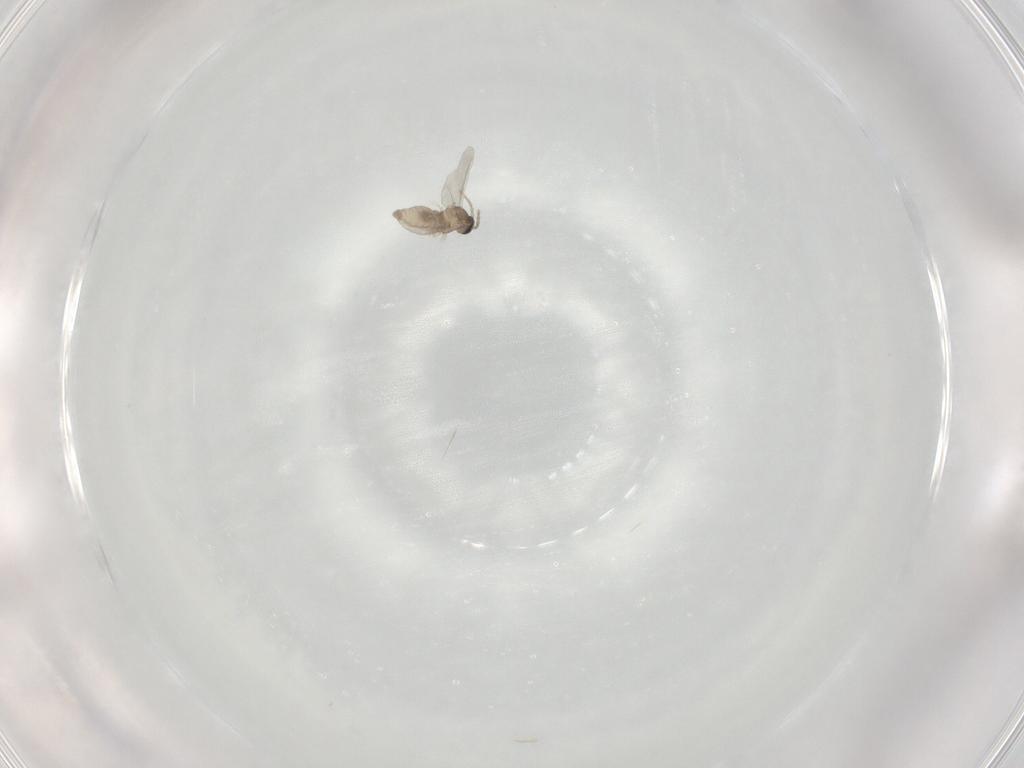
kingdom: Animalia
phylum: Arthropoda
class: Insecta
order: Diptera
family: Cecidomyiidae
